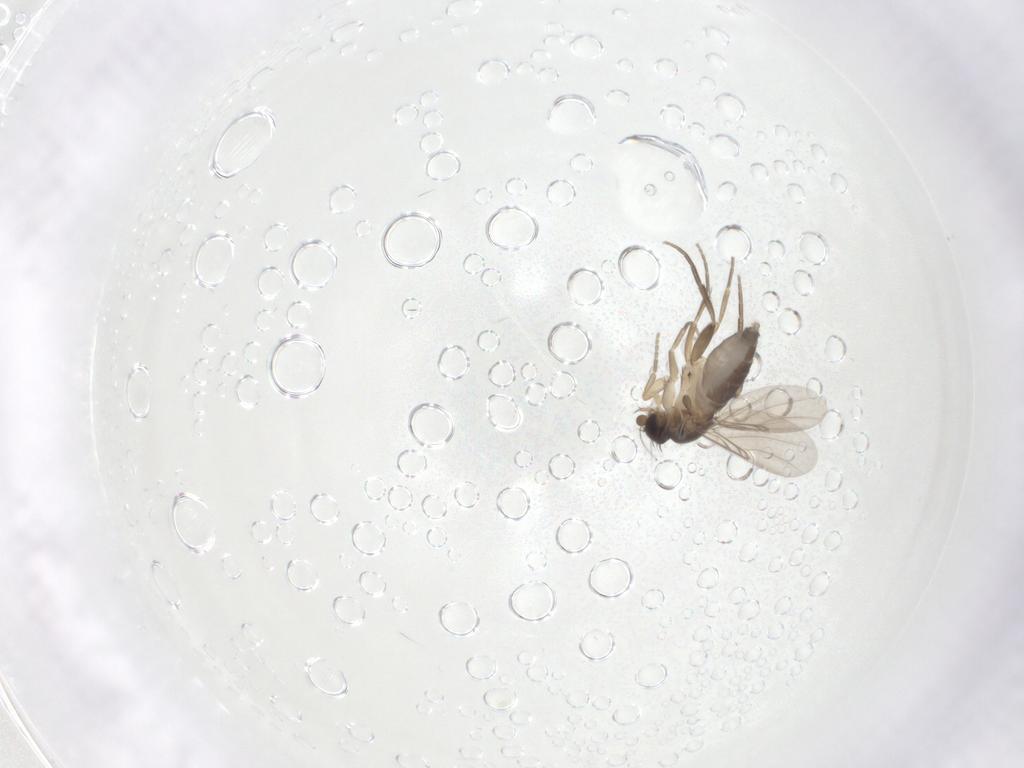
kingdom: Animalia
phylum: Arthropoda
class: Insecta
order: Diptera
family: Phoridae
